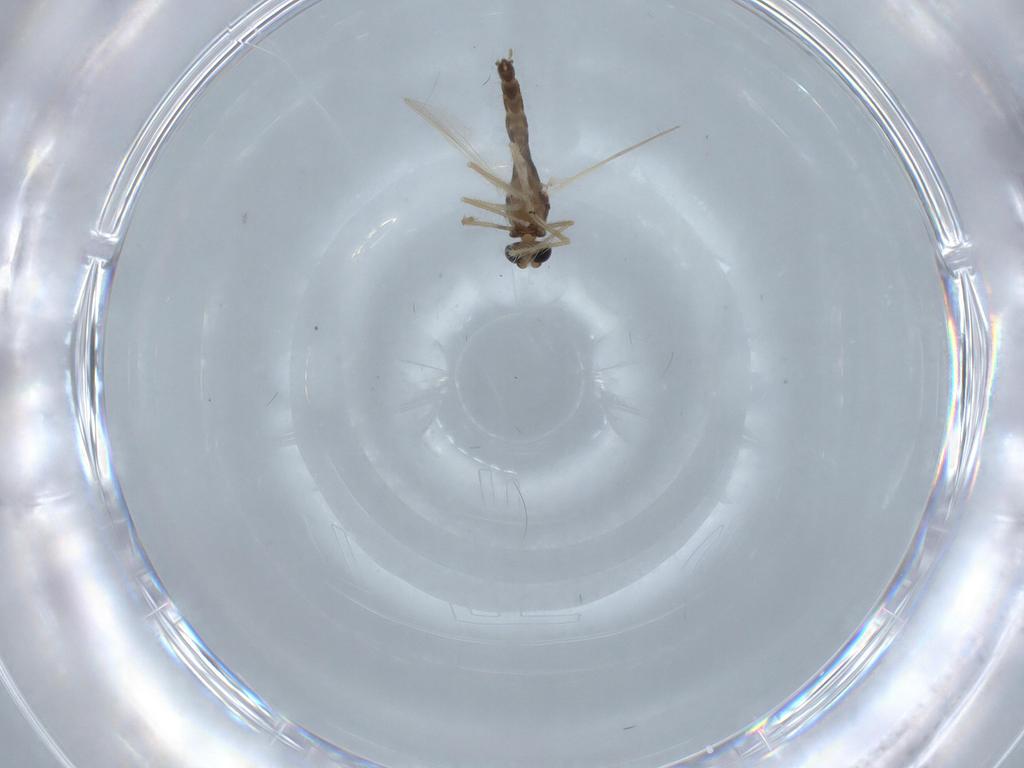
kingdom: Animalia
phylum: Arthropoda
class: Insecta
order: Diptera
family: Chironomidae
